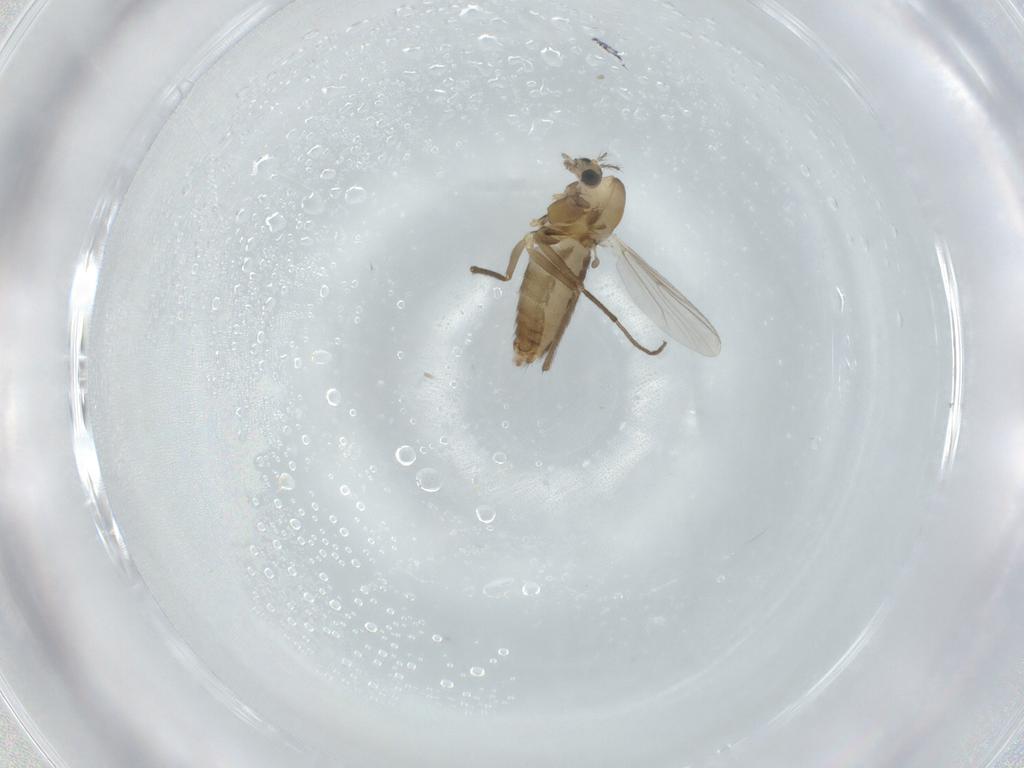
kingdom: Animalia
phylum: Arthropoda
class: Insecta
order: Diptera
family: Chironomidae
